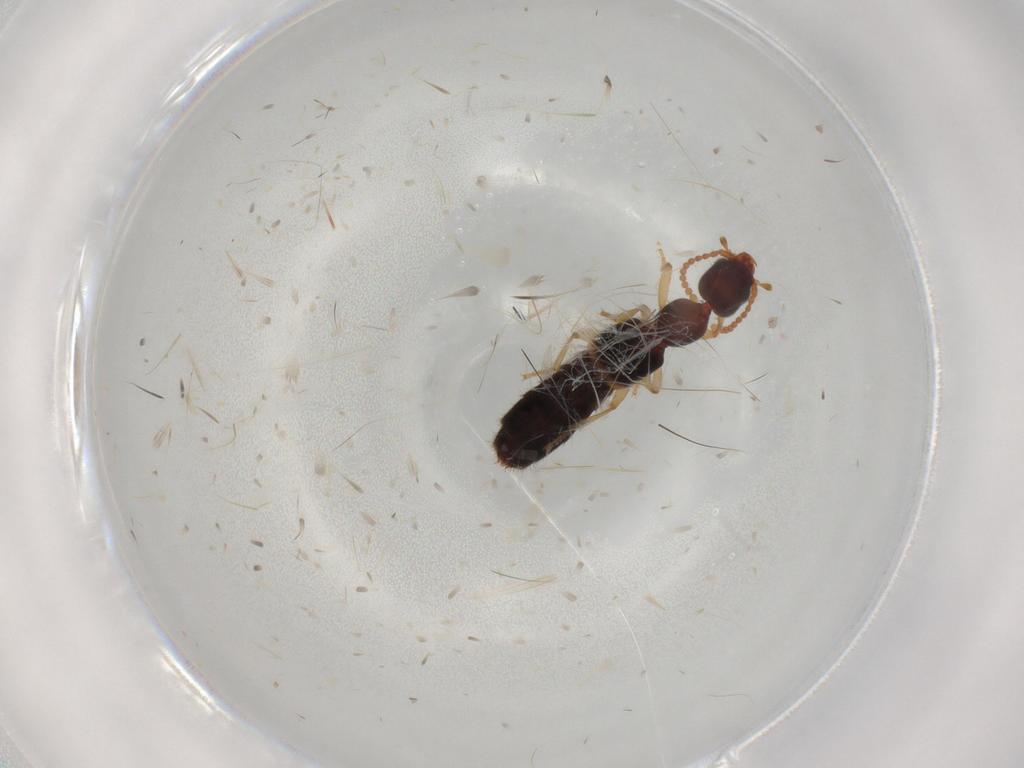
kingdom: Animalia
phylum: Arthropoda
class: Insecta
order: Coleoptera
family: Staphylinidae
